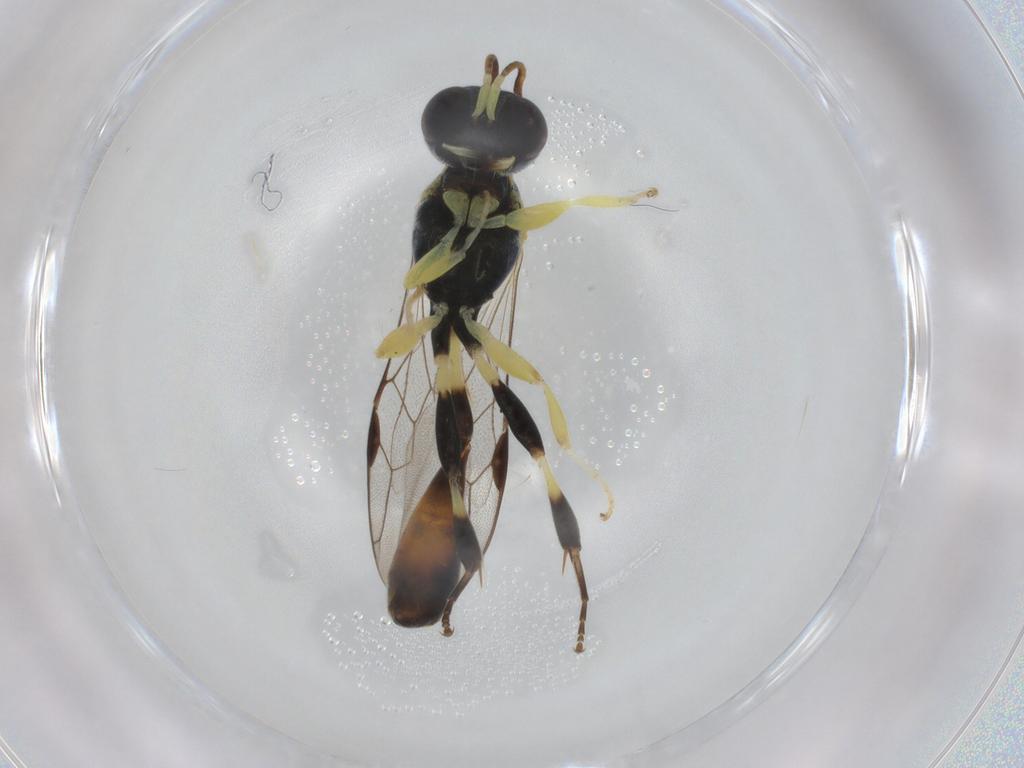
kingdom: Animalia
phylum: Arthropoda
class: Insecta
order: Hymenoptera
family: Crabronidae
